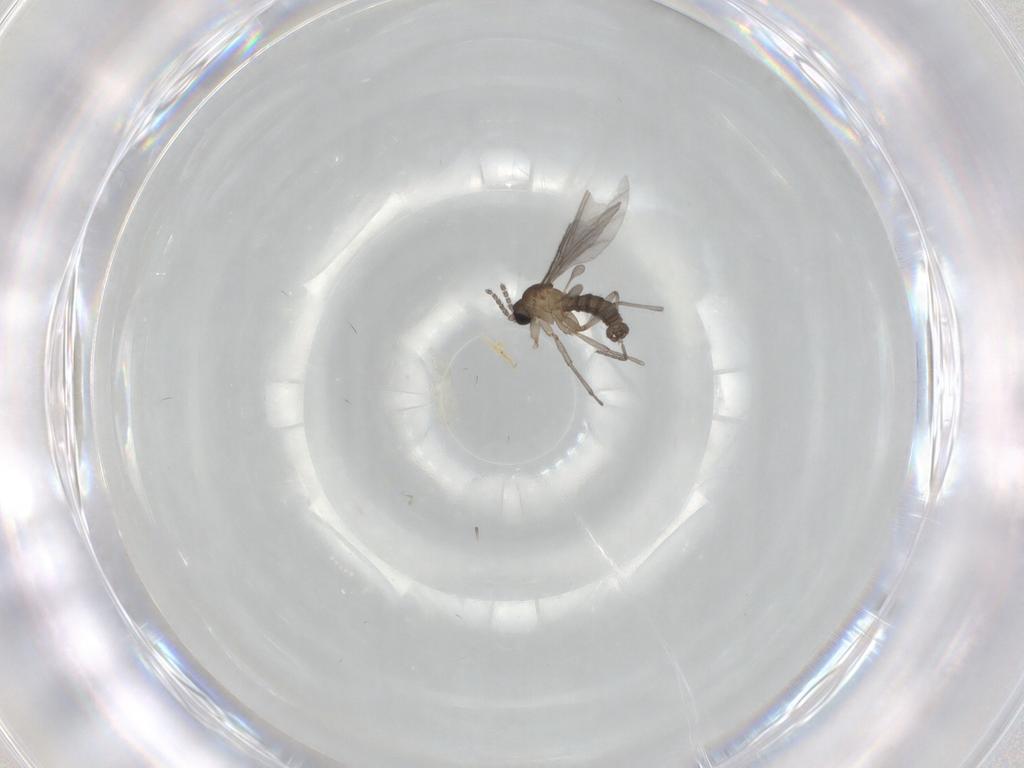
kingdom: Animalia
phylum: Arthropoda
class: Insecta
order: Diptera
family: Sciaridae
